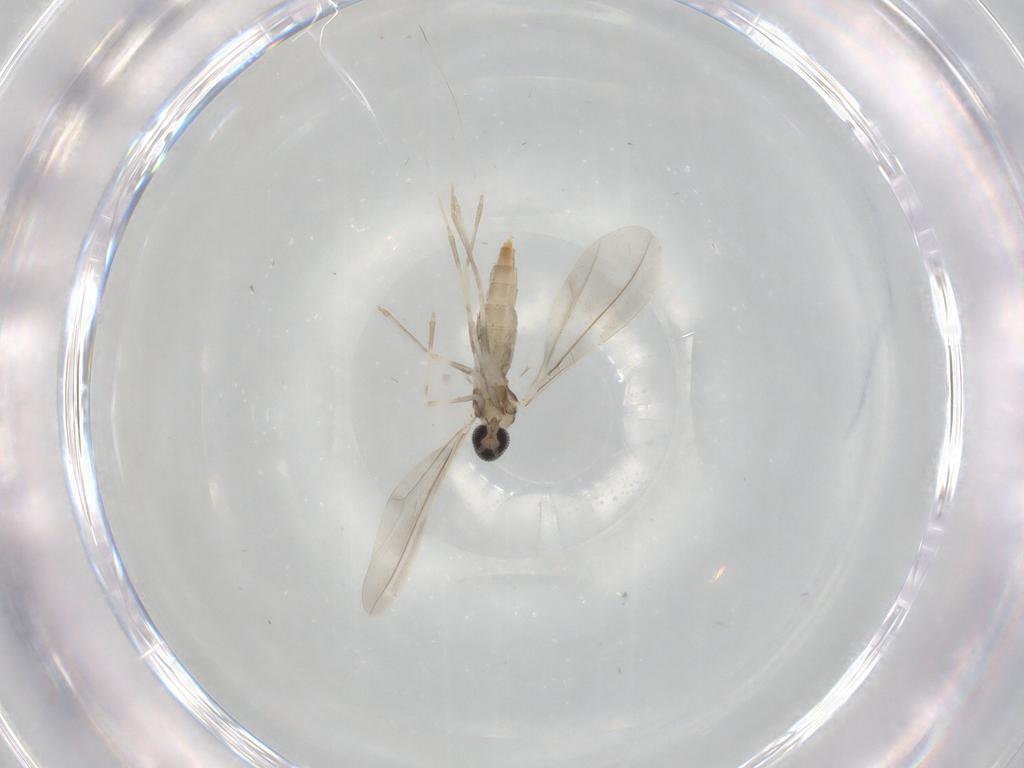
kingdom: Animalia
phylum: Arthropoda
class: Insecta
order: Diptera
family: Cecidomyiidae
